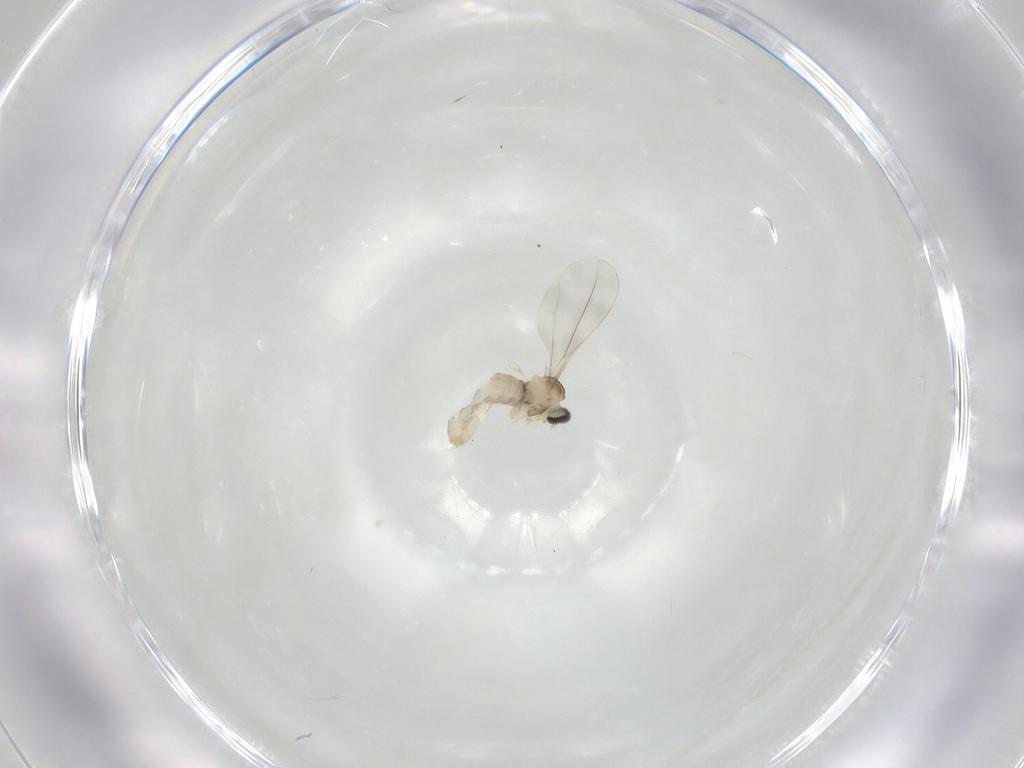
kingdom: Animalia
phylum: Arthropoda
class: Insecta
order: Diptera
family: Cecidomyiidae
